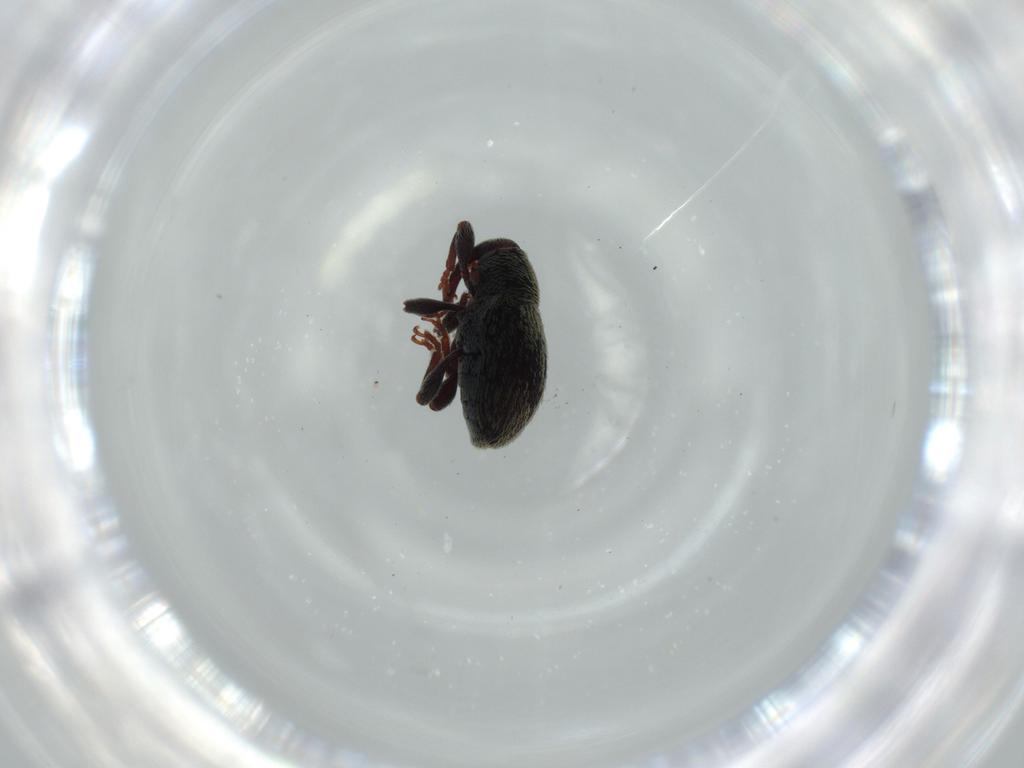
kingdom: Animalia
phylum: Arthropoda
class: Insecta
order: Coleoptera
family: Curculionidae
